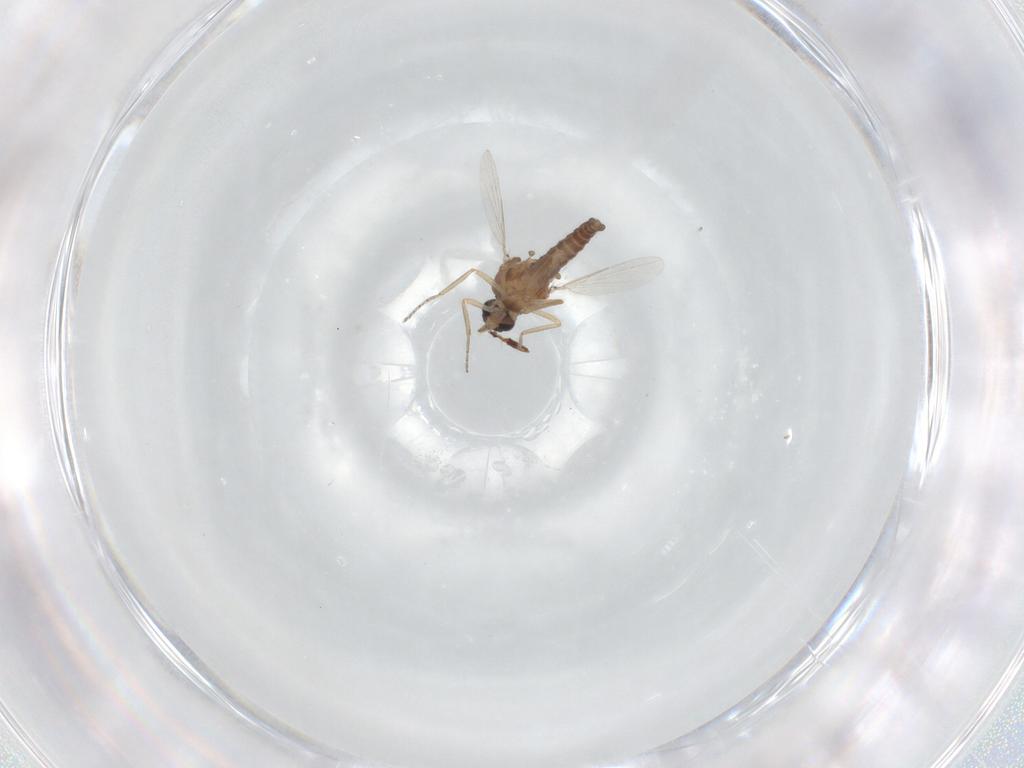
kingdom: Animalia
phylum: Arthropoda
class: Insecta
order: Diptera
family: Ceratopogonidae
